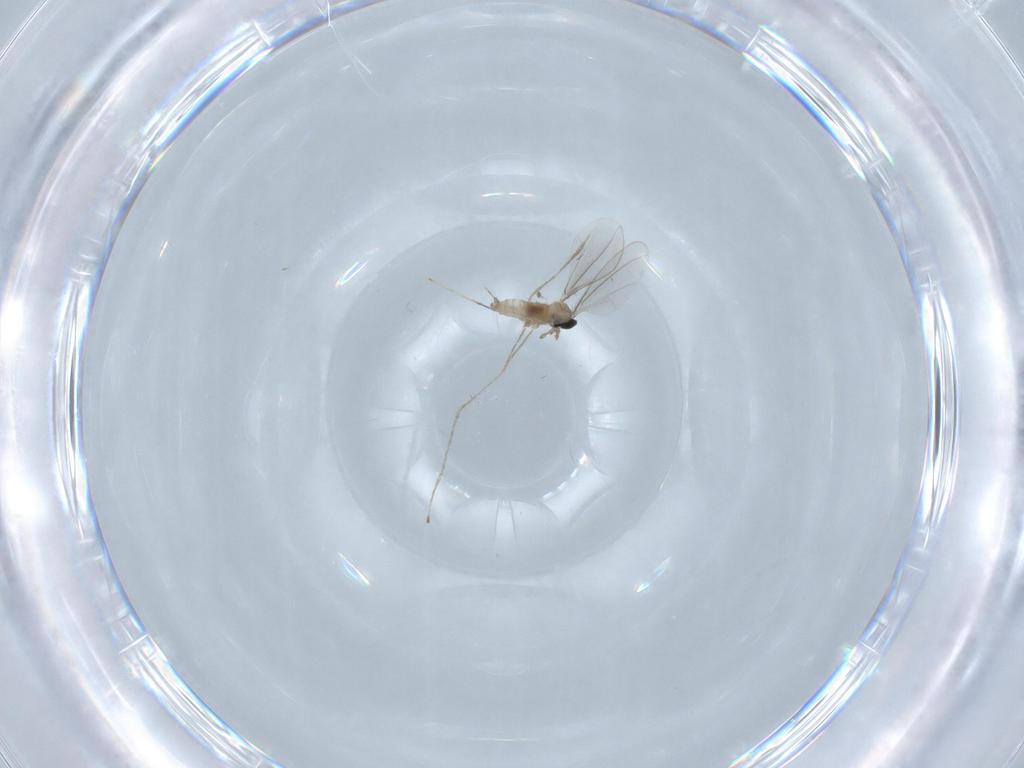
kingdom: Animalia
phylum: Arthropoda
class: Insecta
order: Diptera
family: Cecidomyiidae
